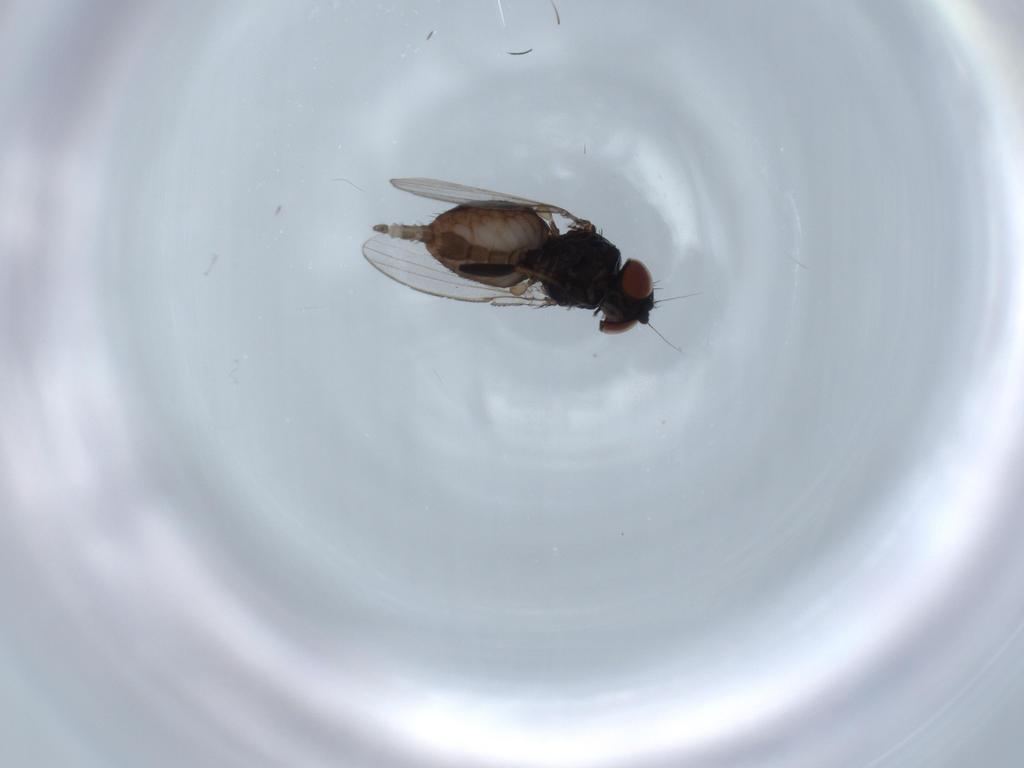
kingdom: Animalia
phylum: Arthropoda
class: Insecta
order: Diptera
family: Milichiidae
